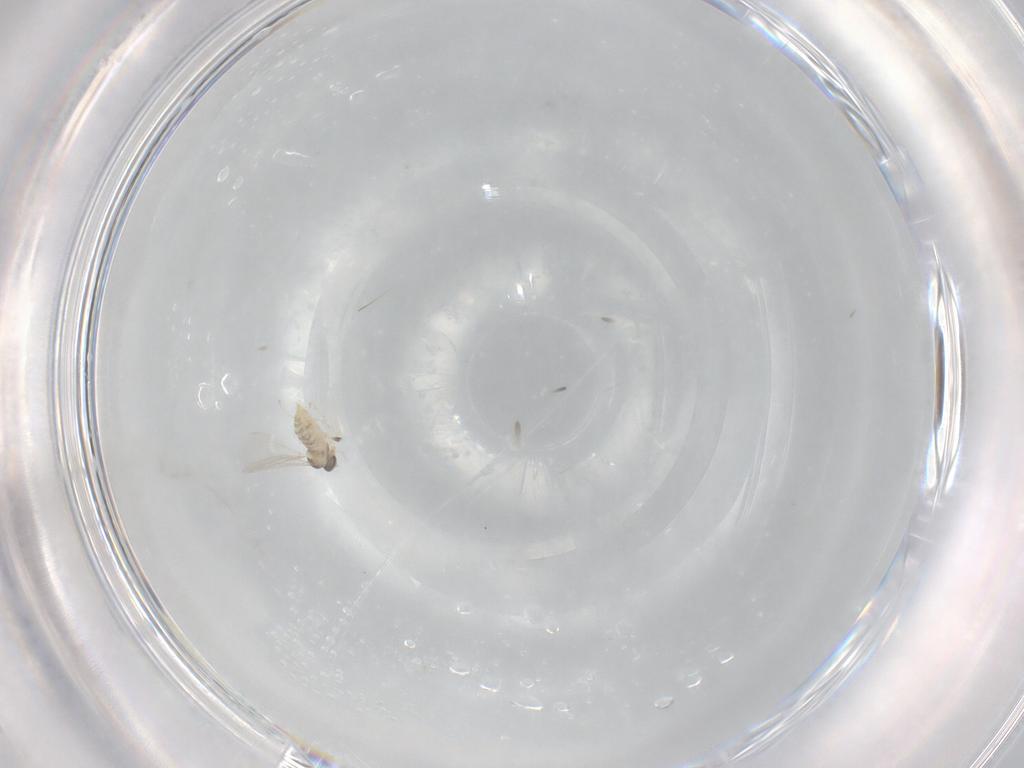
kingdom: Animalia
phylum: Arthropoda
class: Insecta
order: Diptera
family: Cecidomyiidae
